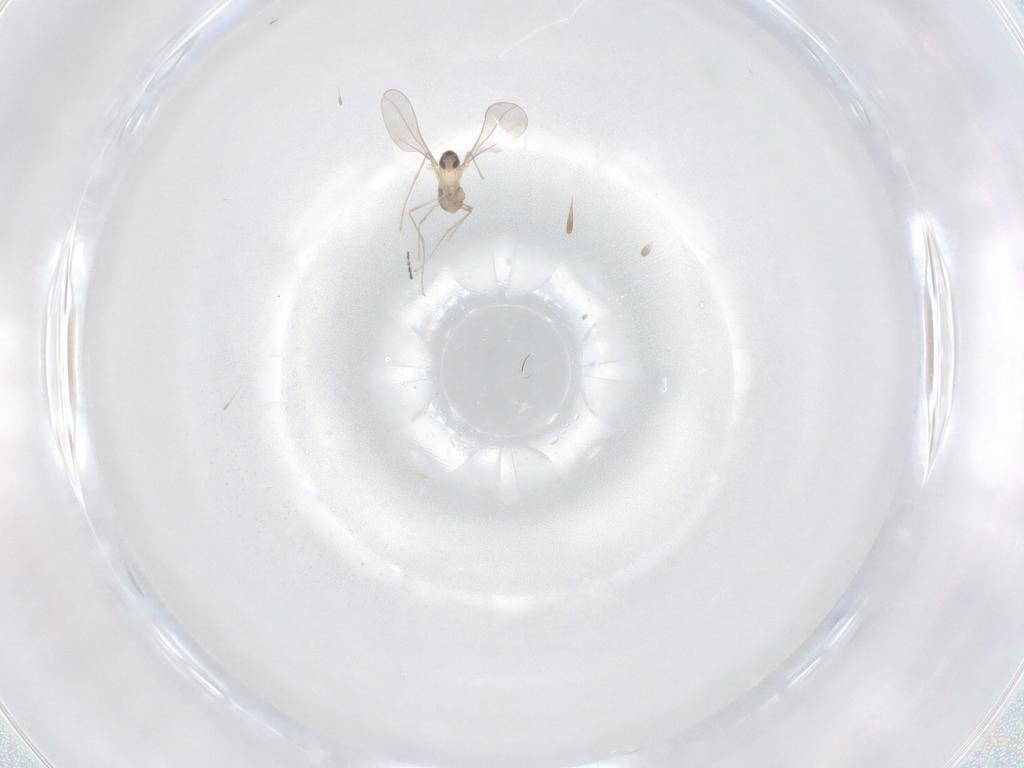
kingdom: Animalia
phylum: Arthropoda
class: Insecta
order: Diptera
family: Cecidomyiidae
